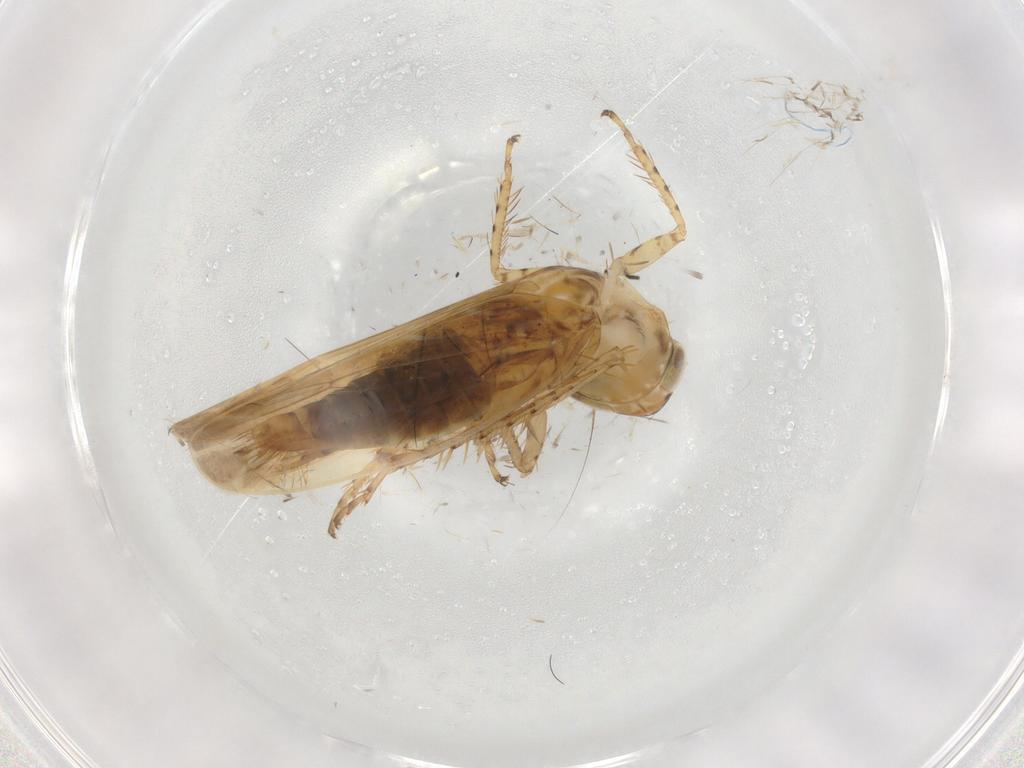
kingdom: Animalia
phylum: Arthropoda
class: Insecta
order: Hemiptera
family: Cicadellidae
